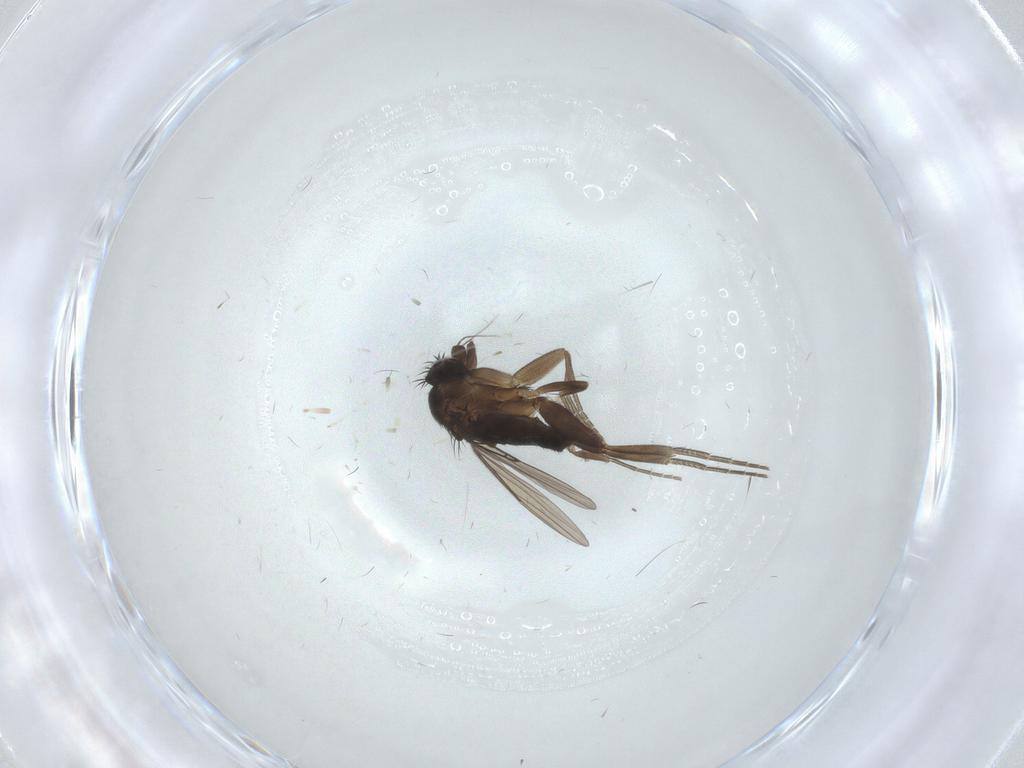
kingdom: Animalia
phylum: Arthropoda
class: Insecta
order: Diptera
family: Phoridae
